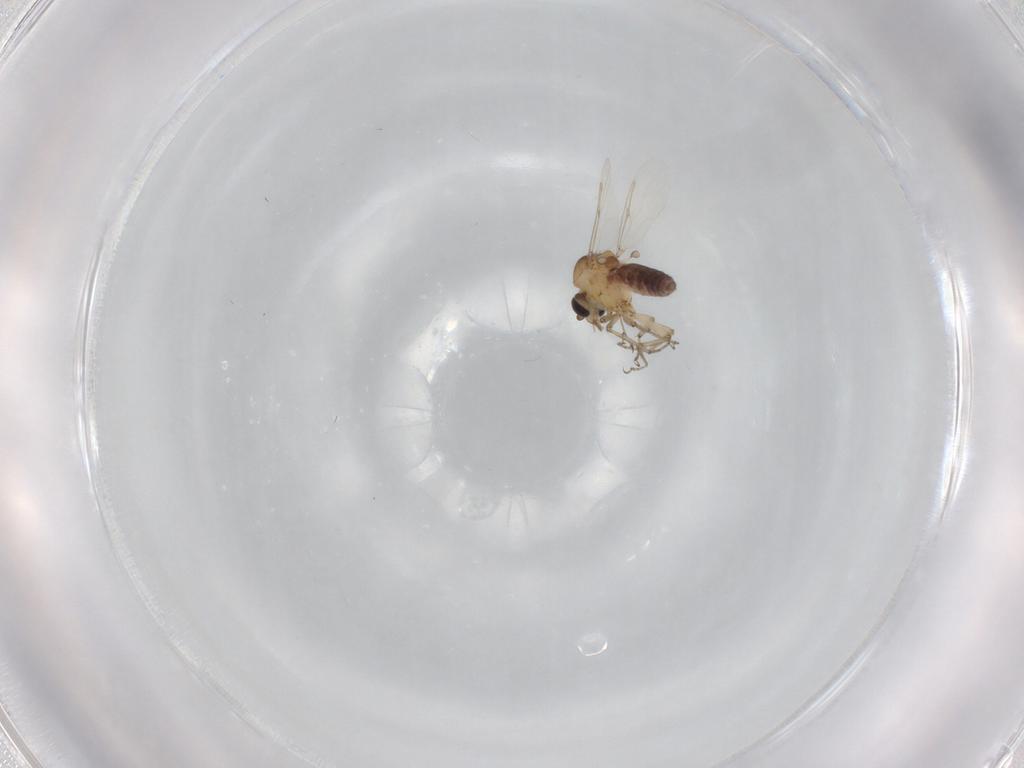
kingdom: Animalia
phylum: Arthropoda
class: Insecta
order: Diptera
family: Ceratopogonidae
